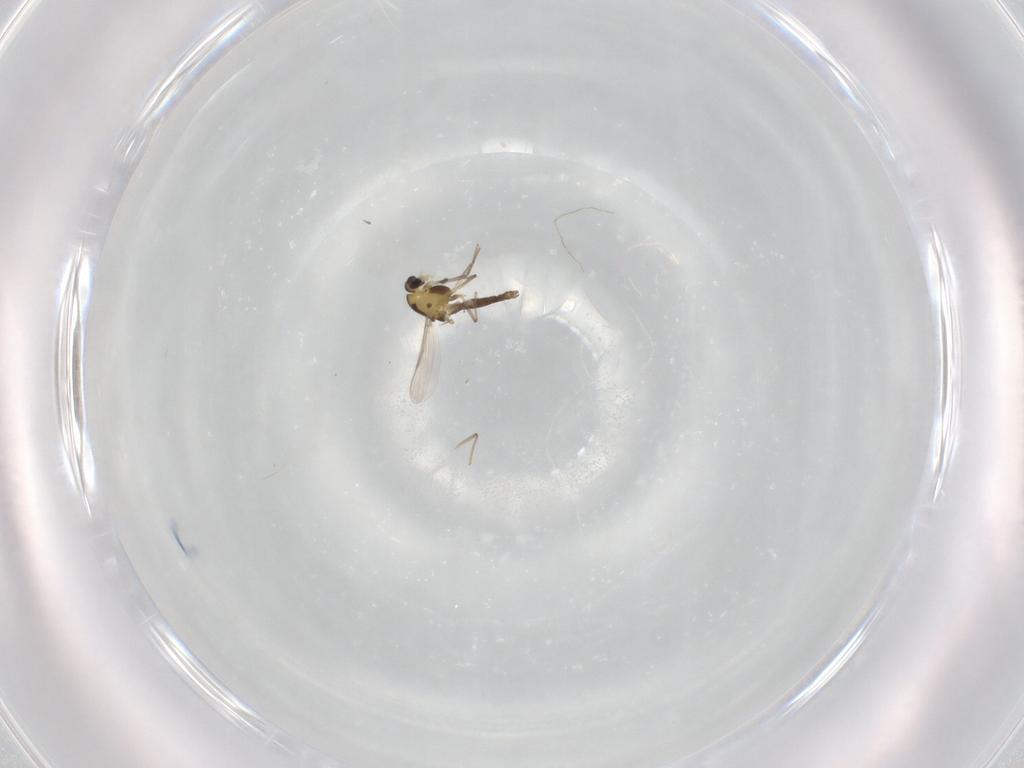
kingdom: Animalia
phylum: Arthropoda
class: Insecta
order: Diptera
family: Chironomidae
